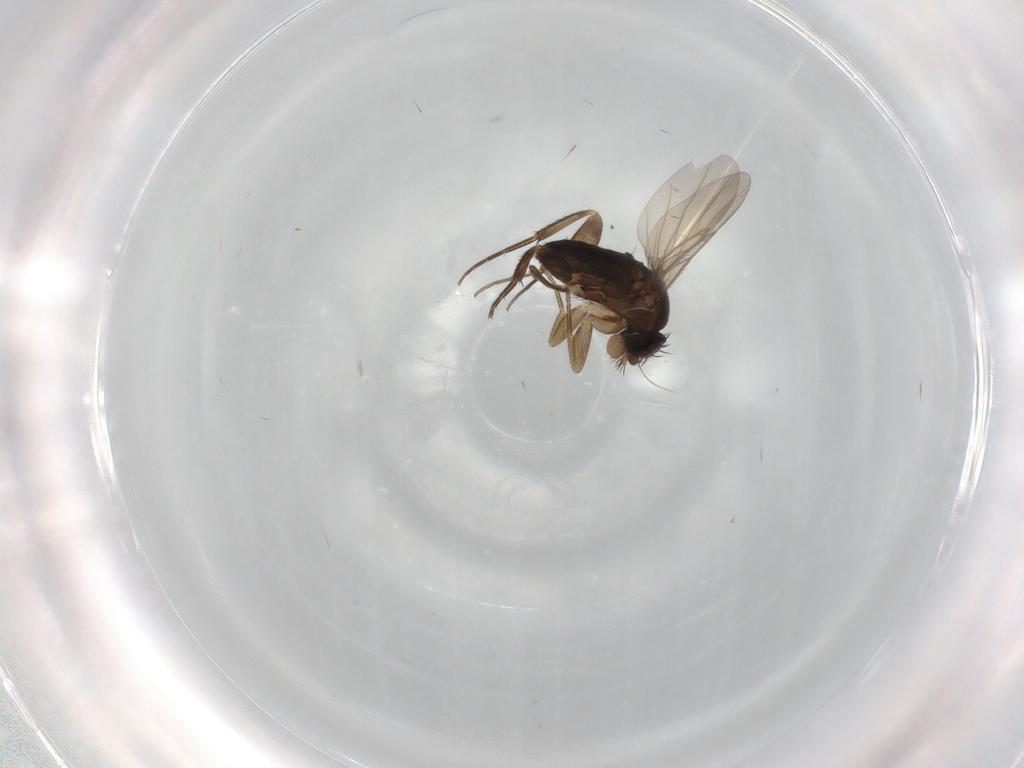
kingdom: Animalia
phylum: Arthropoda
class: Insecta
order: Diptera
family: Phoridae
